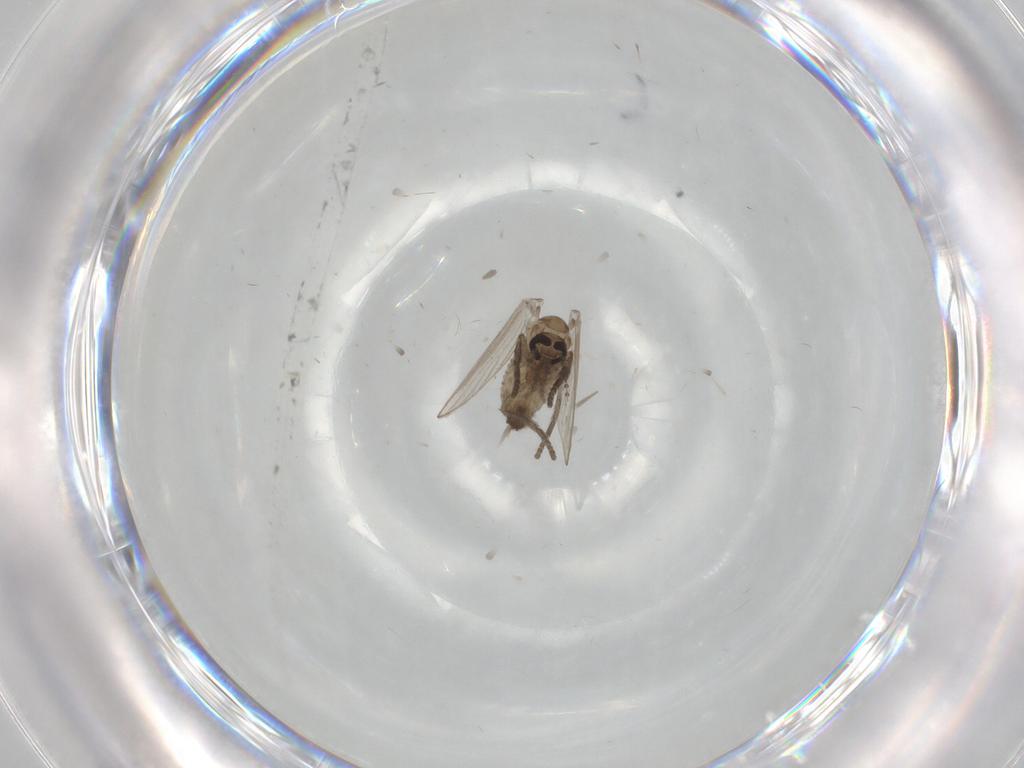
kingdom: Animalia
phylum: Arthropoda
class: Insecta
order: Diptera
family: Psychodidae
